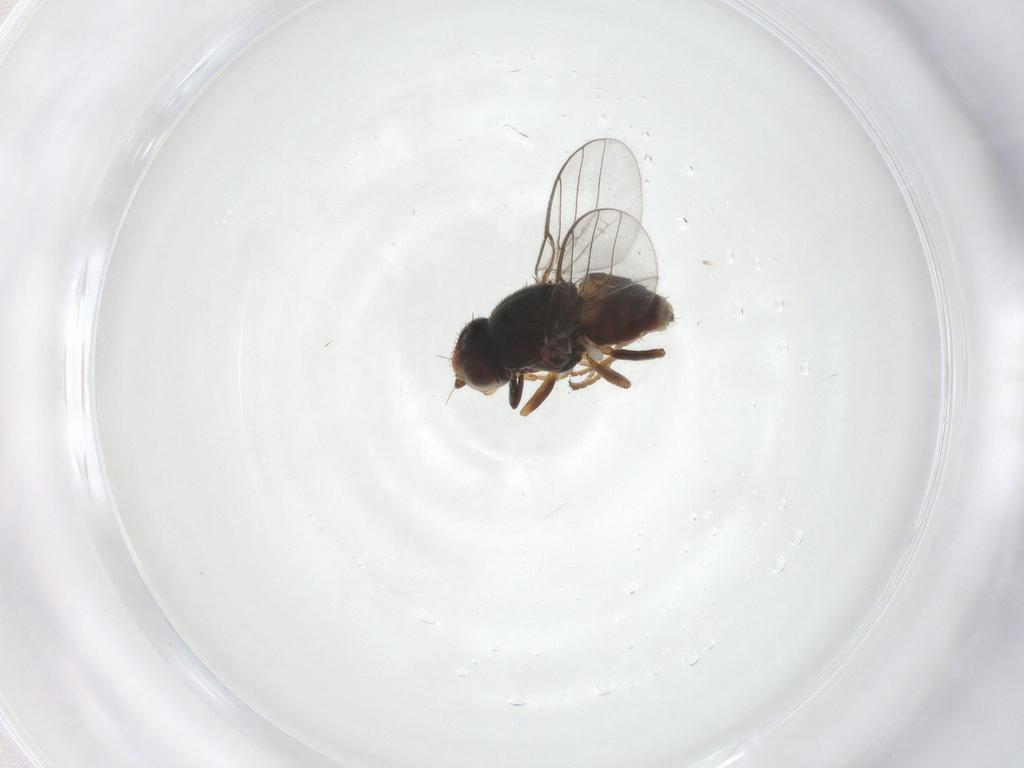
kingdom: Animalia
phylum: Arthropoda
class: Insecta
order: Diptera
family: Chloropidae
